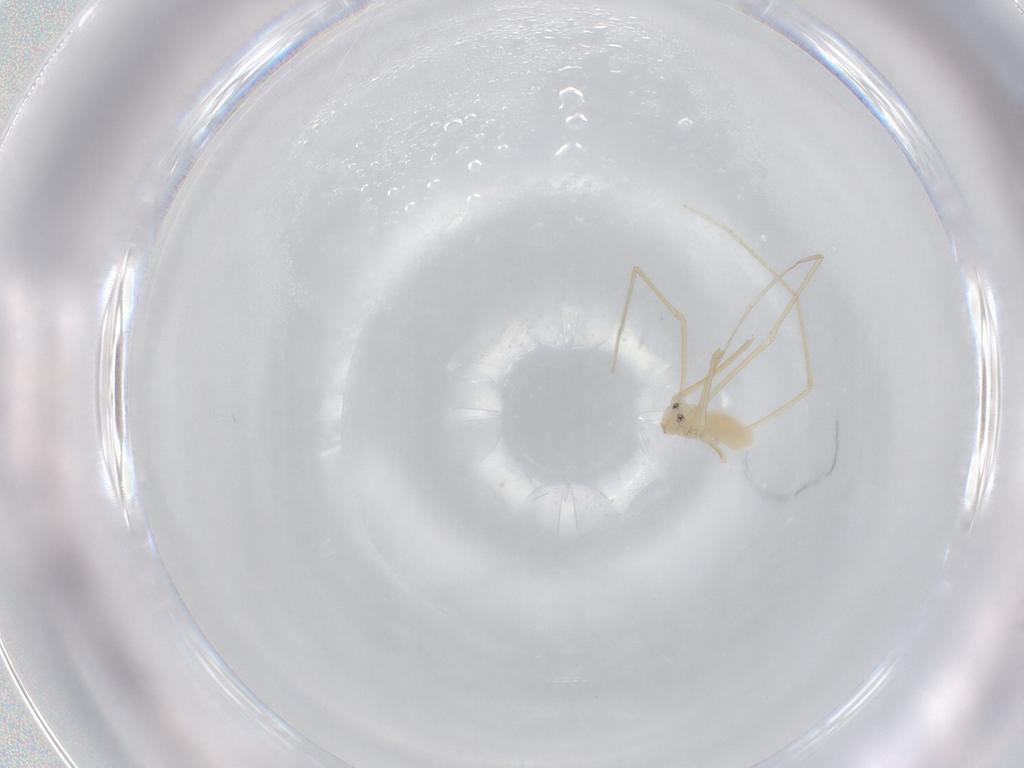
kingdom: Animalia
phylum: Arthropoda
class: Arachnida
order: Araneae
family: Pholcidae
